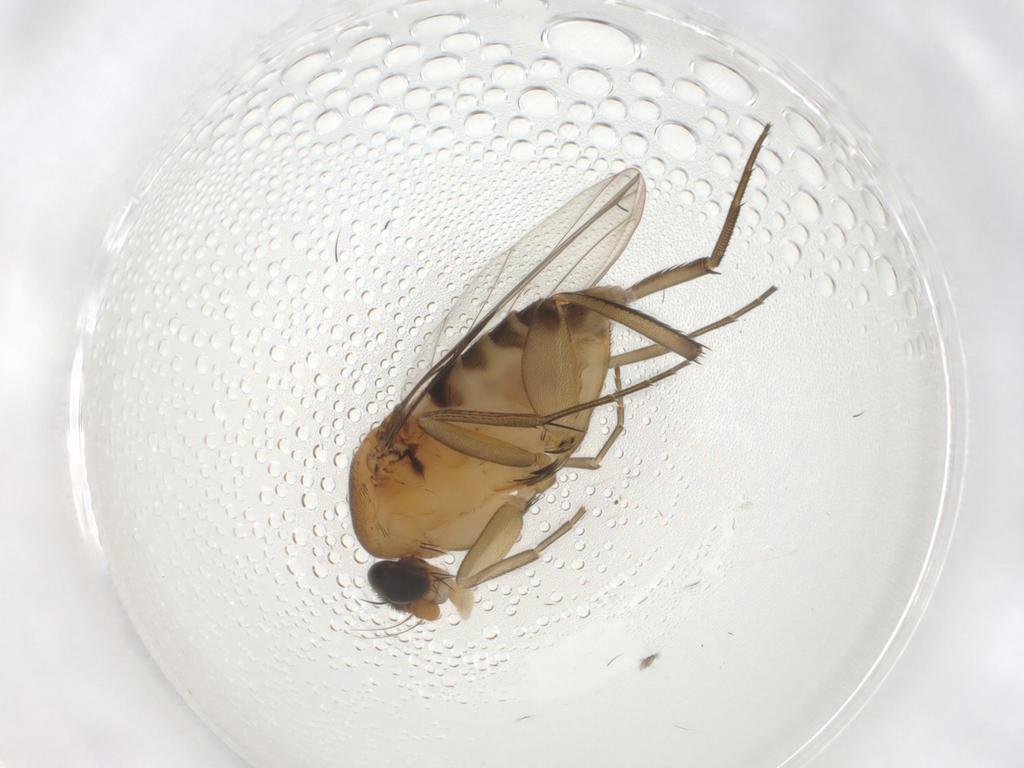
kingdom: Animalia
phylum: Arthropoda
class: Insecta
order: Diptera
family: Phoridae
